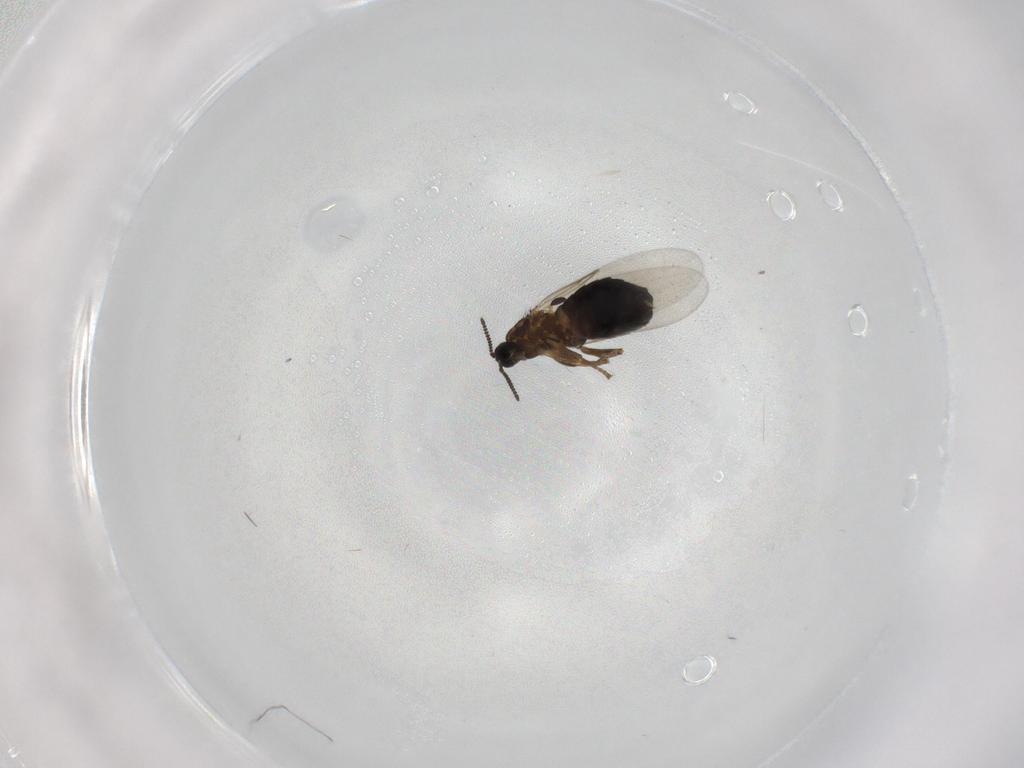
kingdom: Animalia
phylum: Arthropoda
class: Insecta
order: Diptera
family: Scatopsidae
